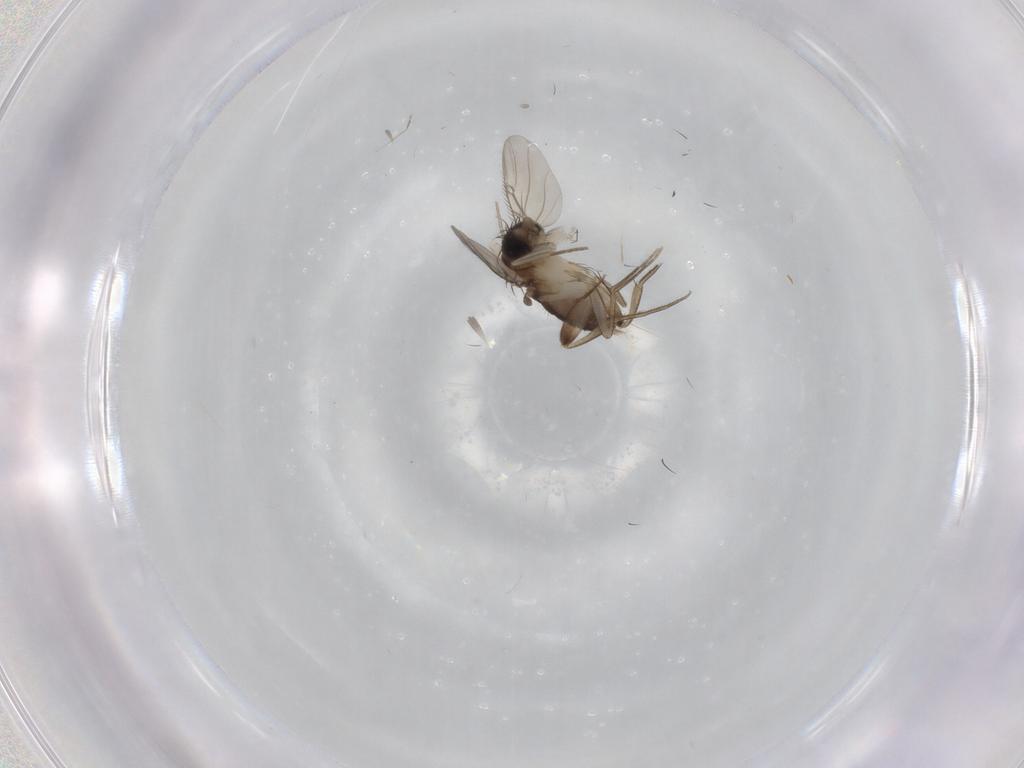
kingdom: Animalia
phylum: Arthropoda
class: Insecta
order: Diptera
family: Phoridae
